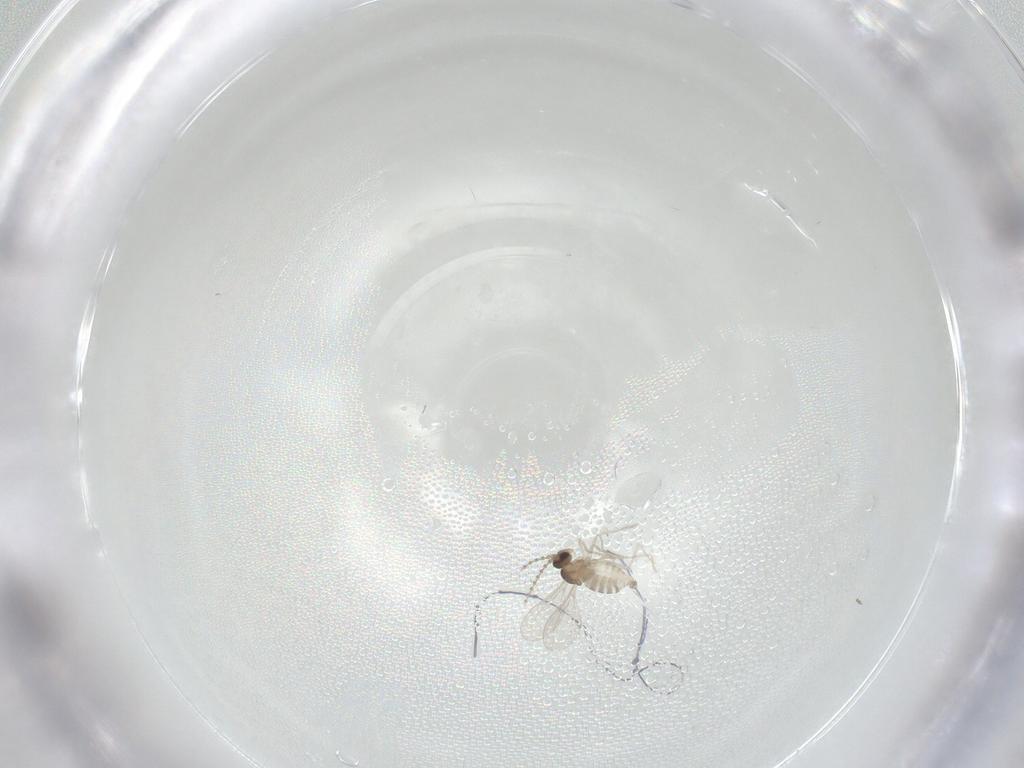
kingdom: Animalia
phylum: Arthropoda
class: Insecta
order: Diptera
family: Cecidomyiidae
